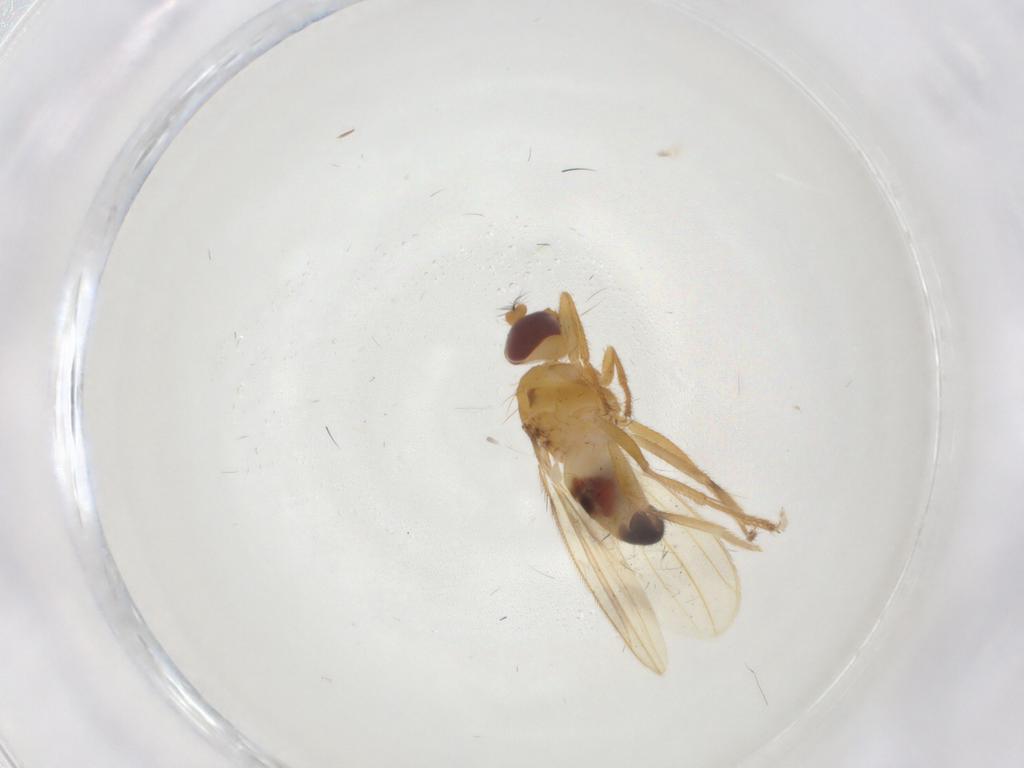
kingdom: Animalia
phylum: Arthropoda
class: Insecta
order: Diptera
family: Periscelididae
